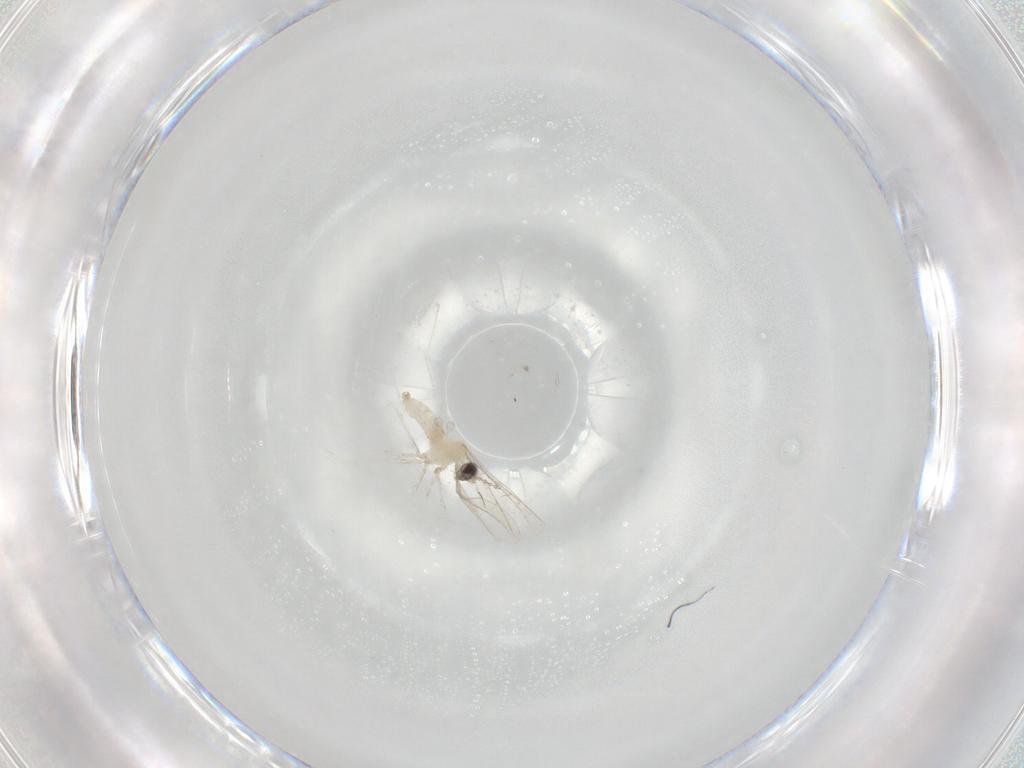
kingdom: Animalia
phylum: Arthropoda
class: Insecta
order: Diptera
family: Cecidomyiidae
